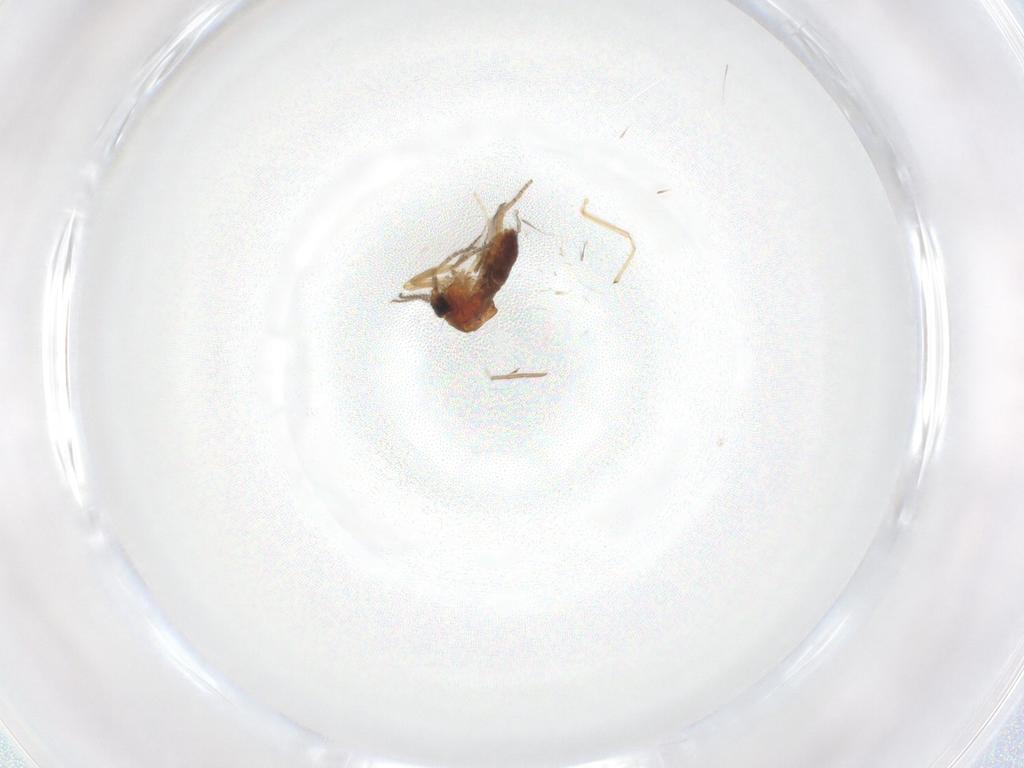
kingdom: Animalia
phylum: Arthropoda
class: Insecta
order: Diptera
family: Ceratopogonidae
